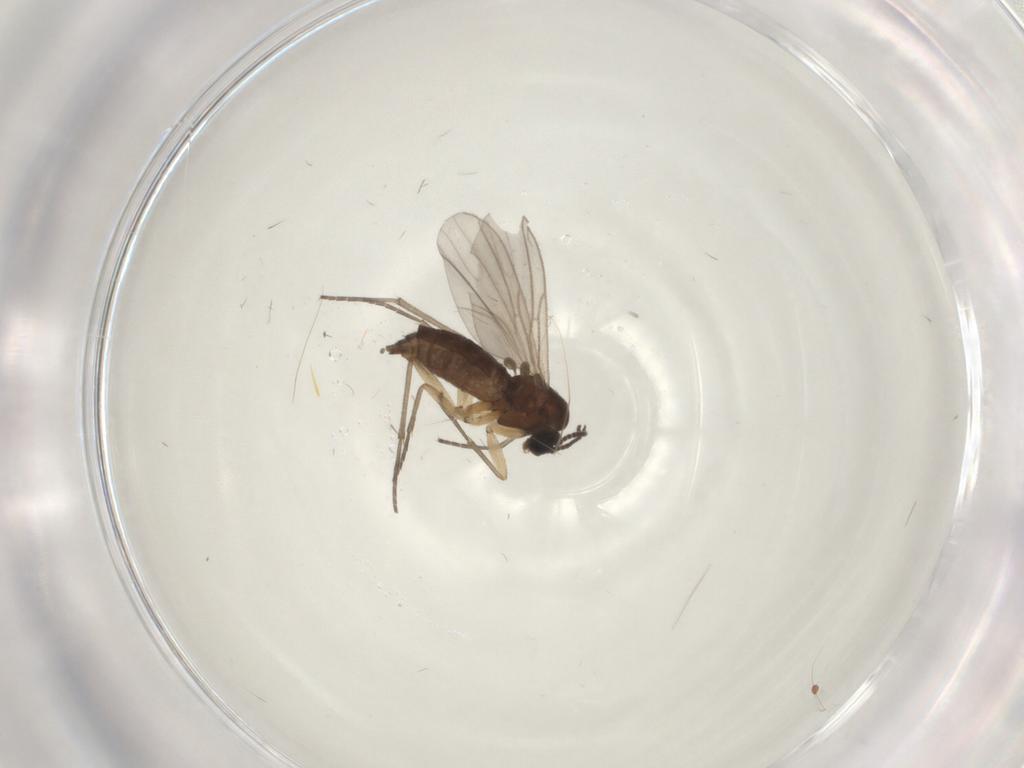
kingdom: Animalia
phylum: Arthropoda
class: Insecta
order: Diptera
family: Sciaridae
